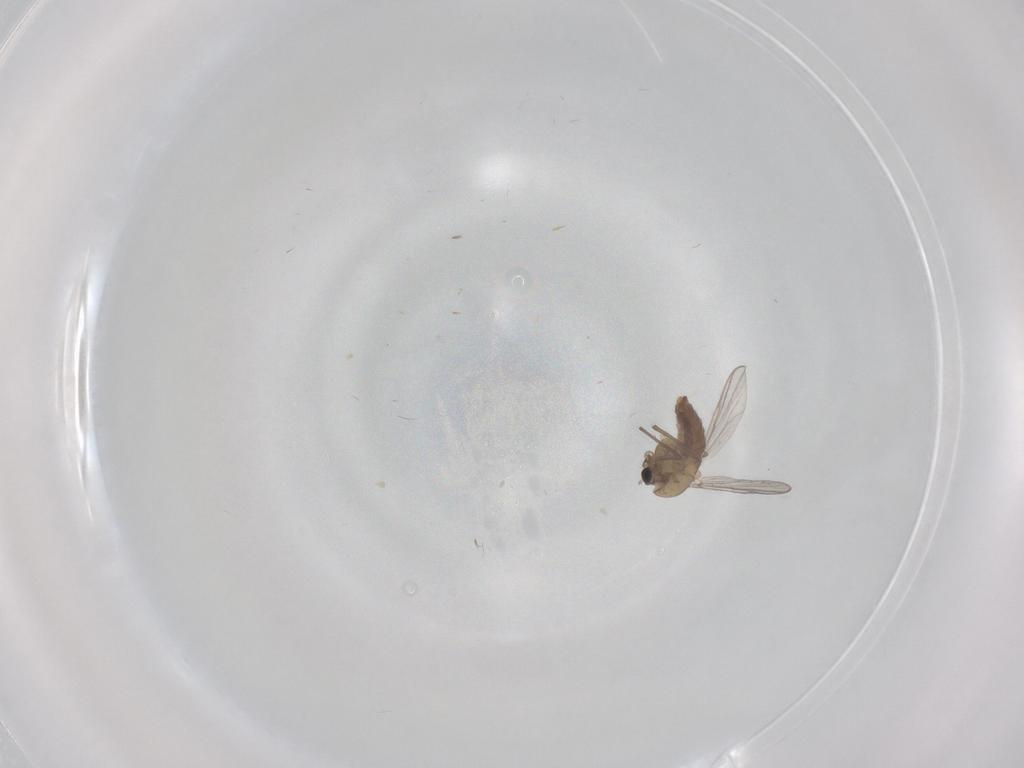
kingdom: Animalia
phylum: Arthropoda
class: Insecta
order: Diptera
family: Chironomidae
